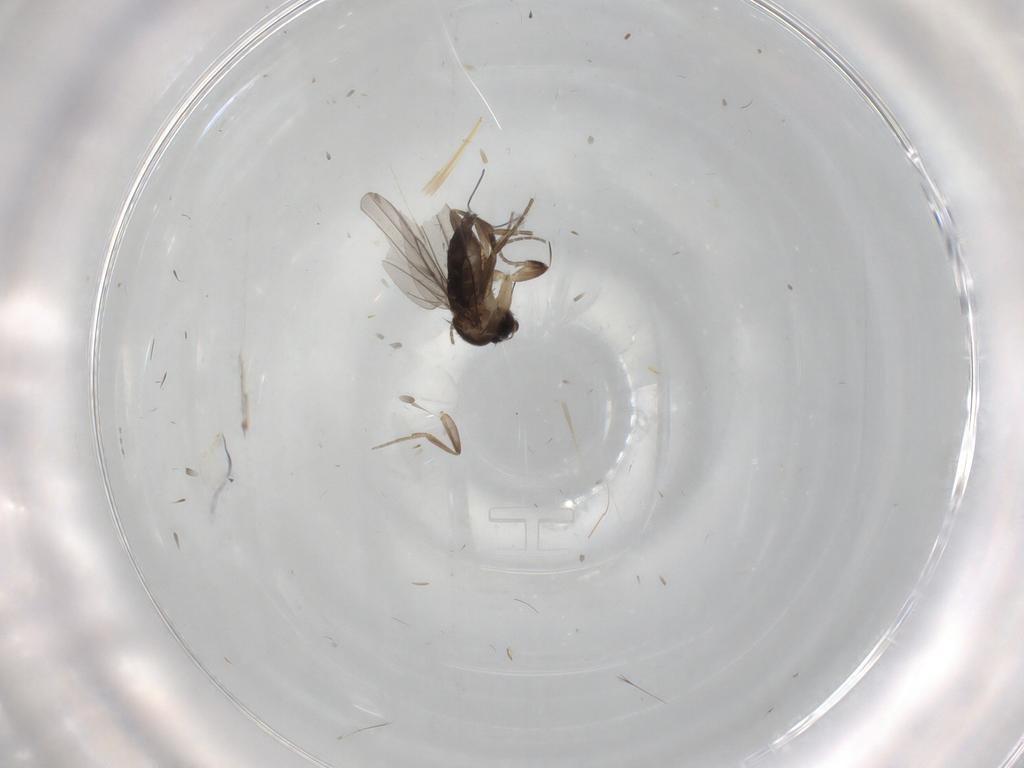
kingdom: Animalia
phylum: Arthropoda
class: Insecta
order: Diptera
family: Phoridae
